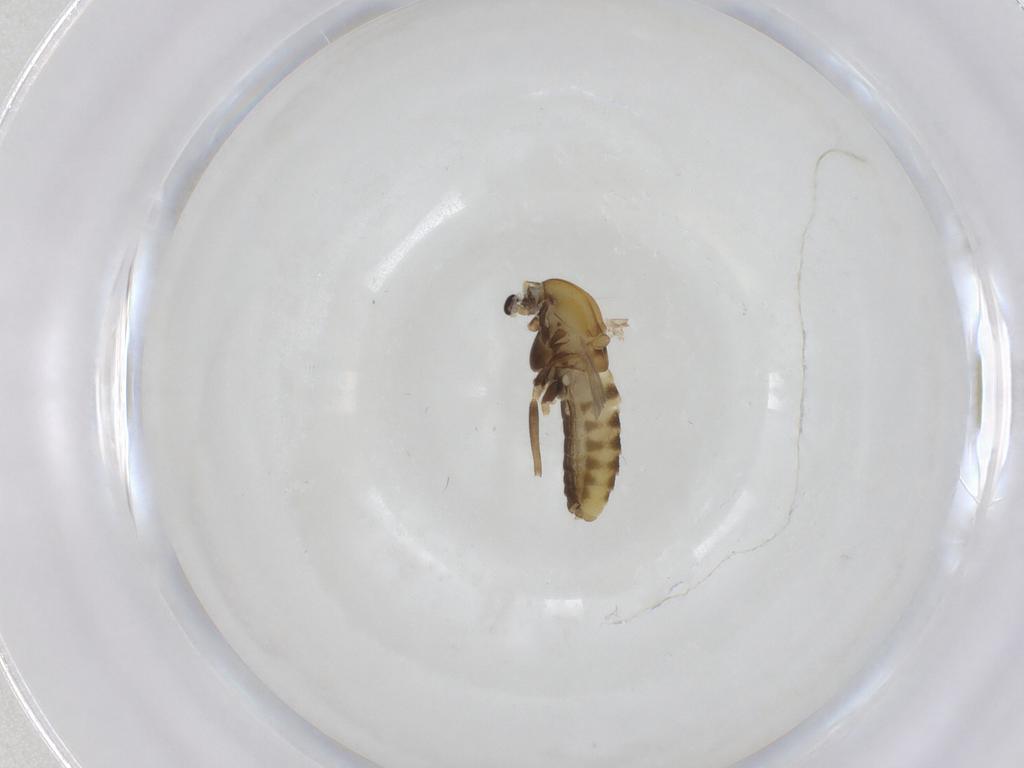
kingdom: Animalia
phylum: Arthropoda
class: Insecta
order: Diptera
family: Chironomidae
